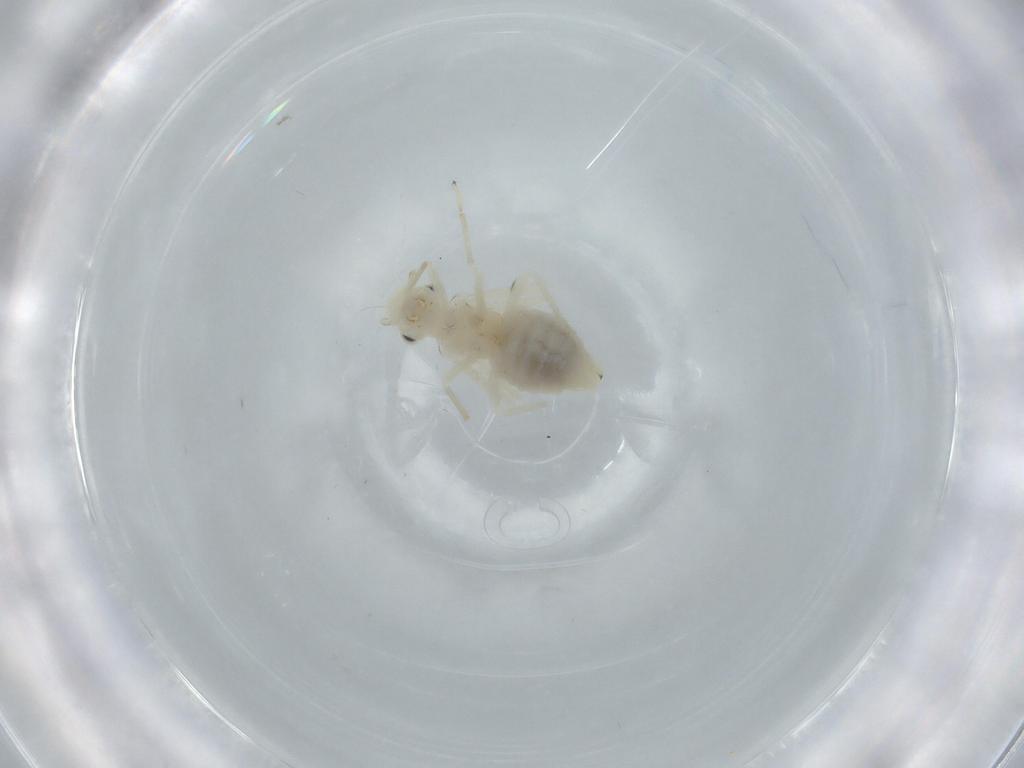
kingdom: Animalia
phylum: Arthropoda
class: Insecta
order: Psocodea
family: Caeciliusidae
